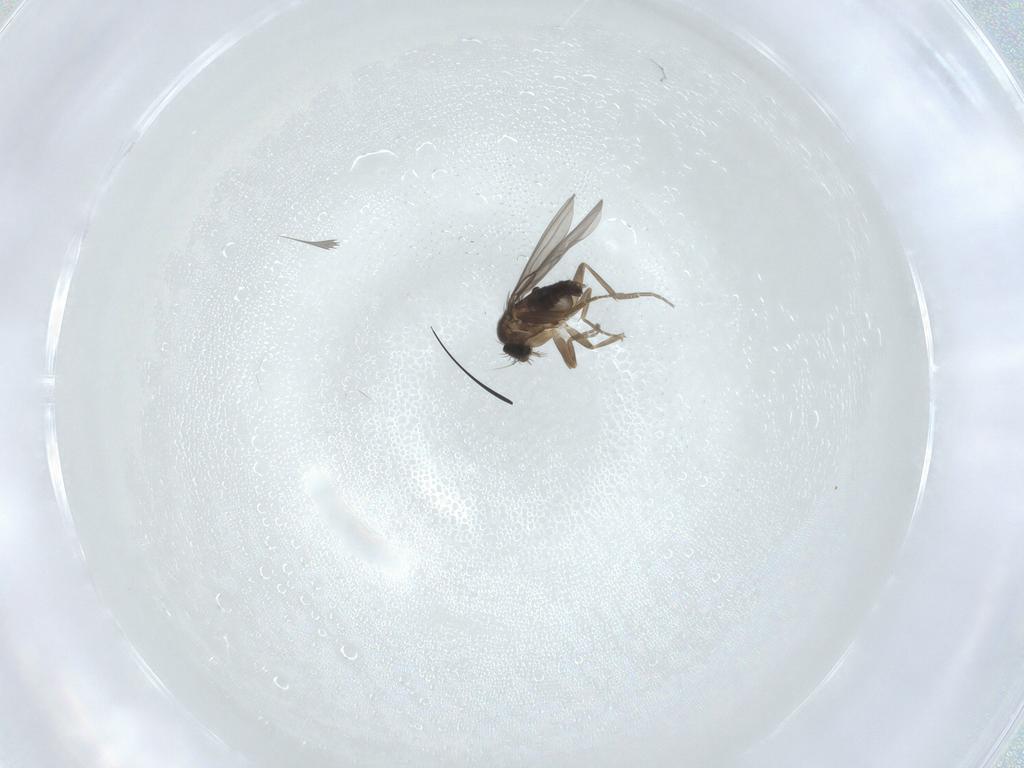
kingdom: Animalia
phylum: Arthropoda
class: Insecta
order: Diptera
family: Phoridae
